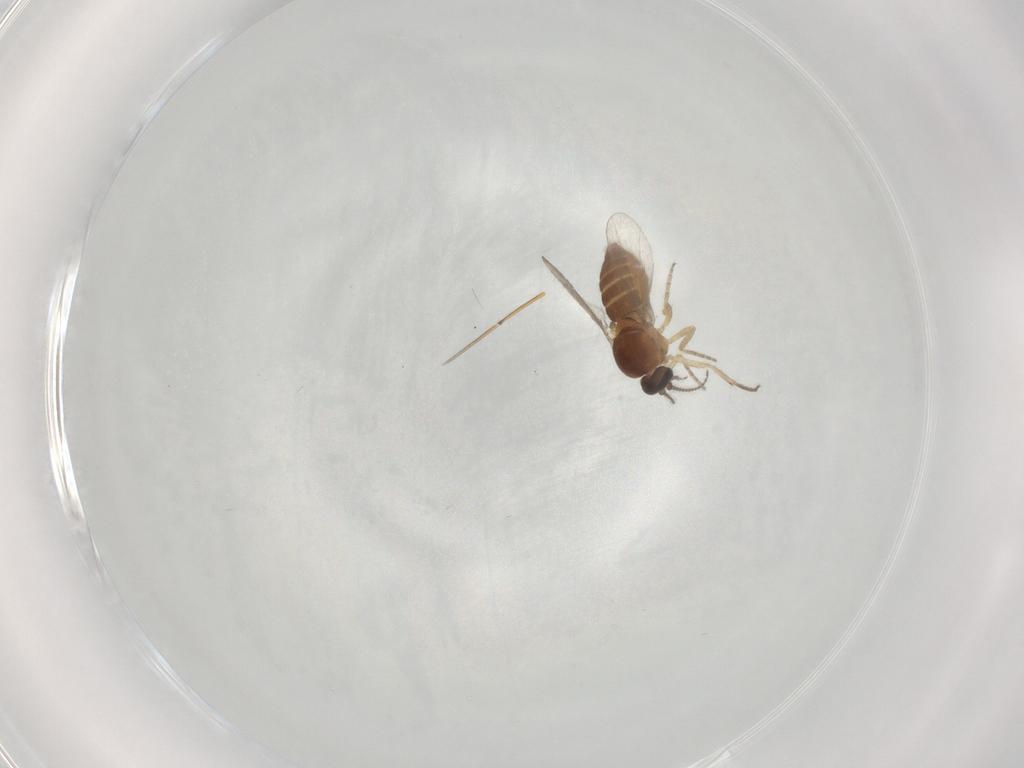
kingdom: Animalia
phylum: Arthropoda
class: Insecta
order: Diptera
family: Ceratopogonidae
